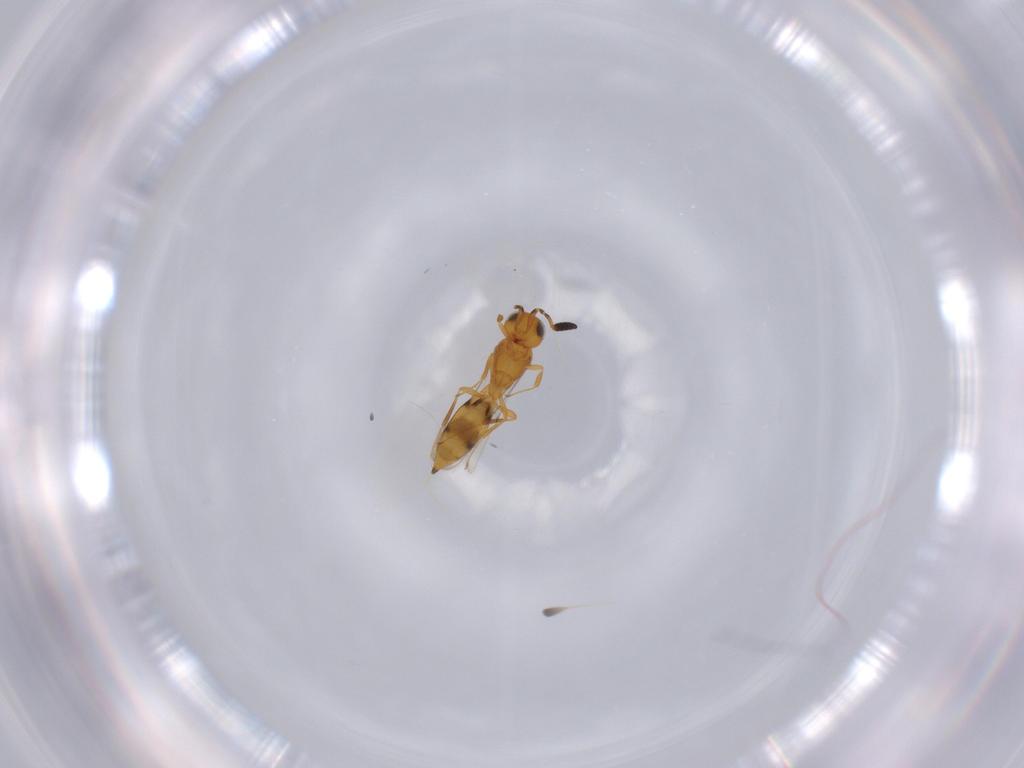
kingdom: Animalia
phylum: Arthropoda
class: Insecta
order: Hymenoptera
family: Scelionidae
